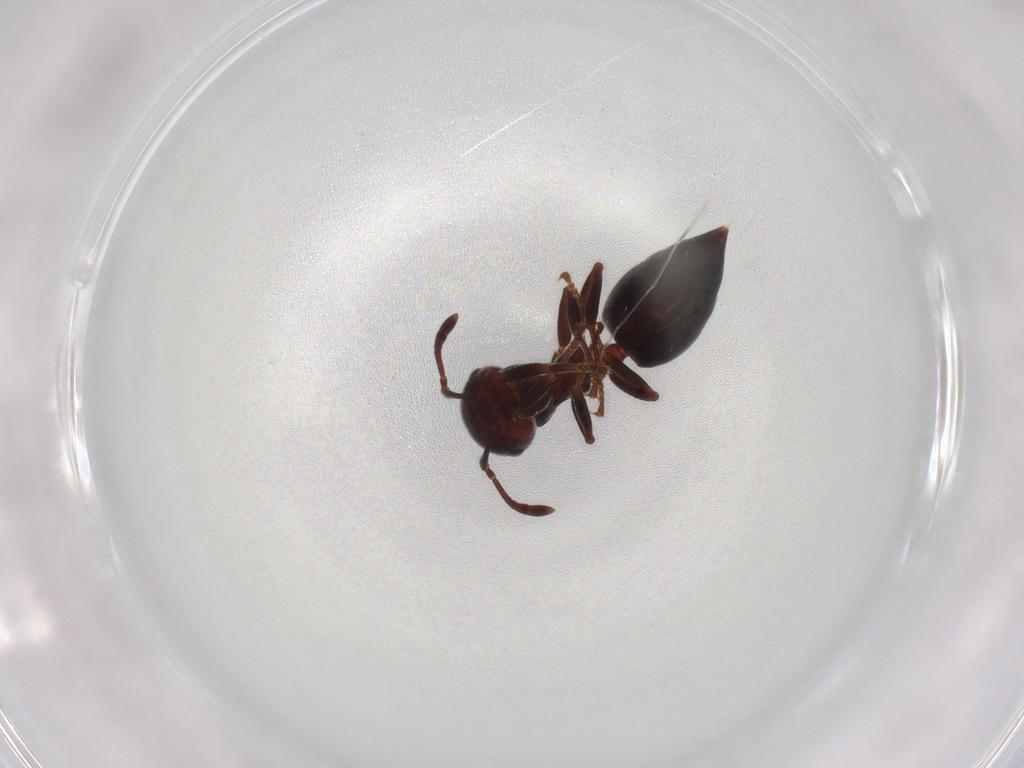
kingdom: Animalia
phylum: Arthropoda
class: Insecta
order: Hymenoptera
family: Formicidae
